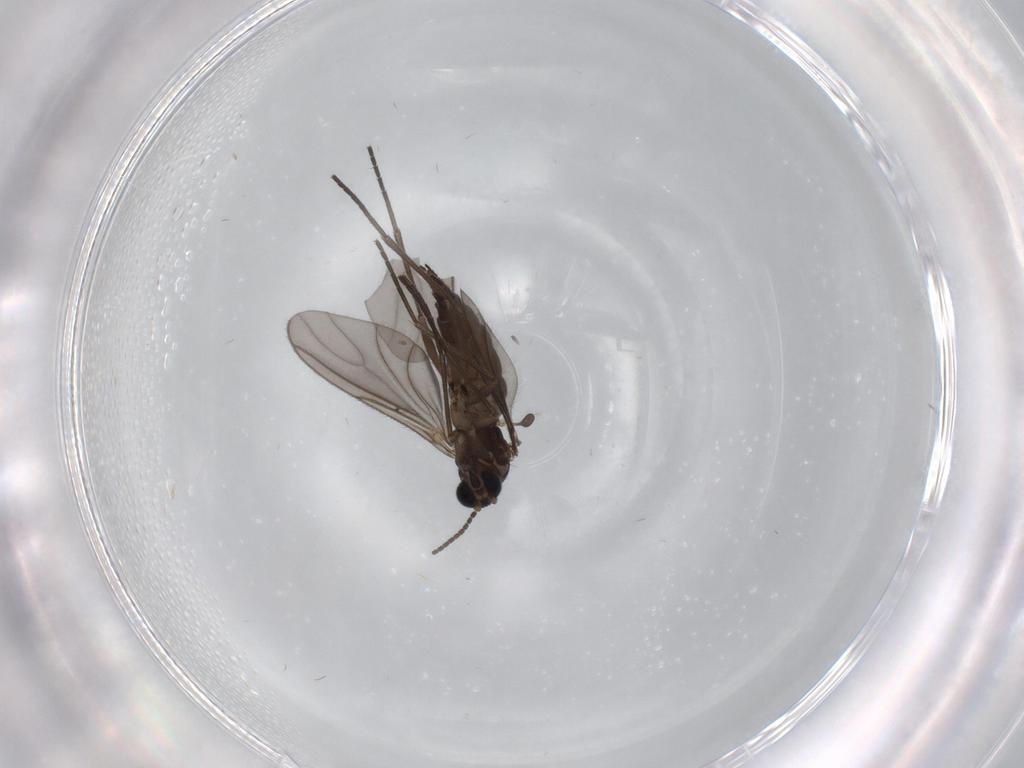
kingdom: Animalia
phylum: Arthropoda
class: Insecta
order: Diptera
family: Sciaridae
